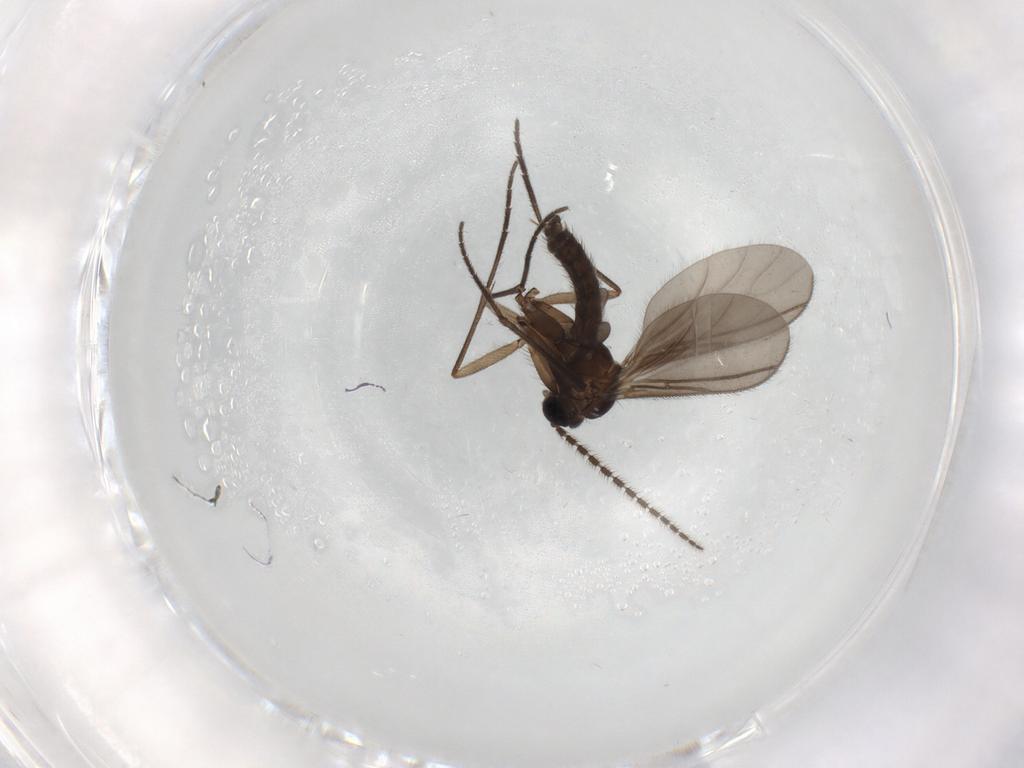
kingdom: Animalia
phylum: Arthropoda
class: Insecta
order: Diptera
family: Sciaridae
